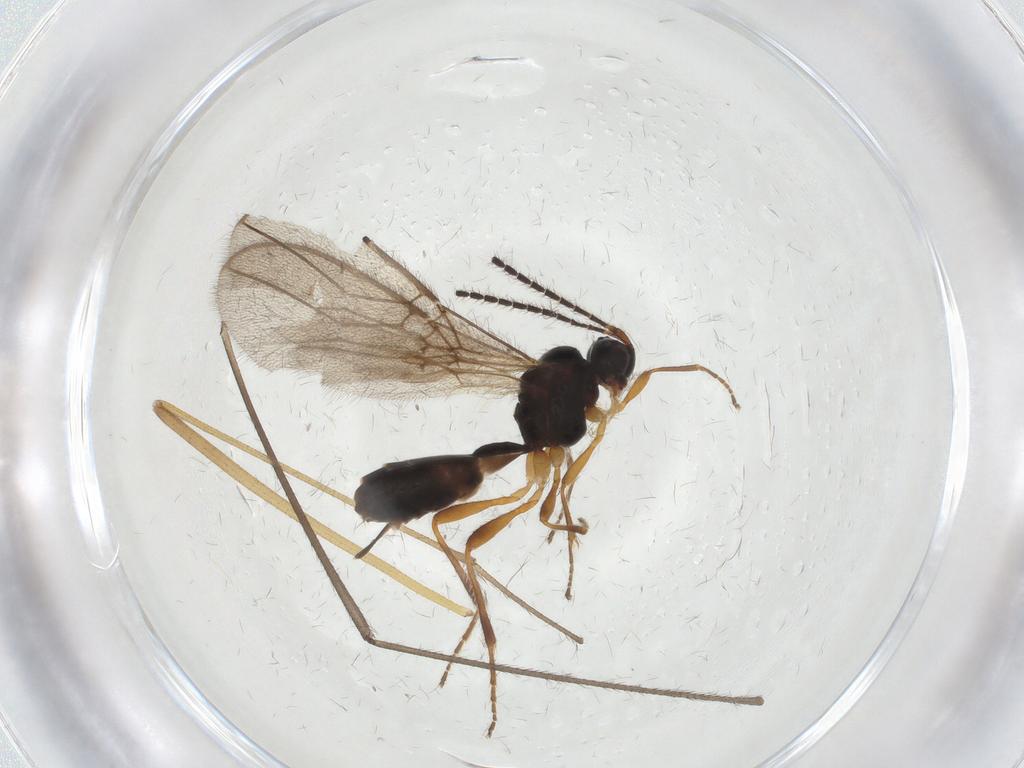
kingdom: Animalia
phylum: Arthropoda
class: Insecta
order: Hymenoptera
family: Braconidae
